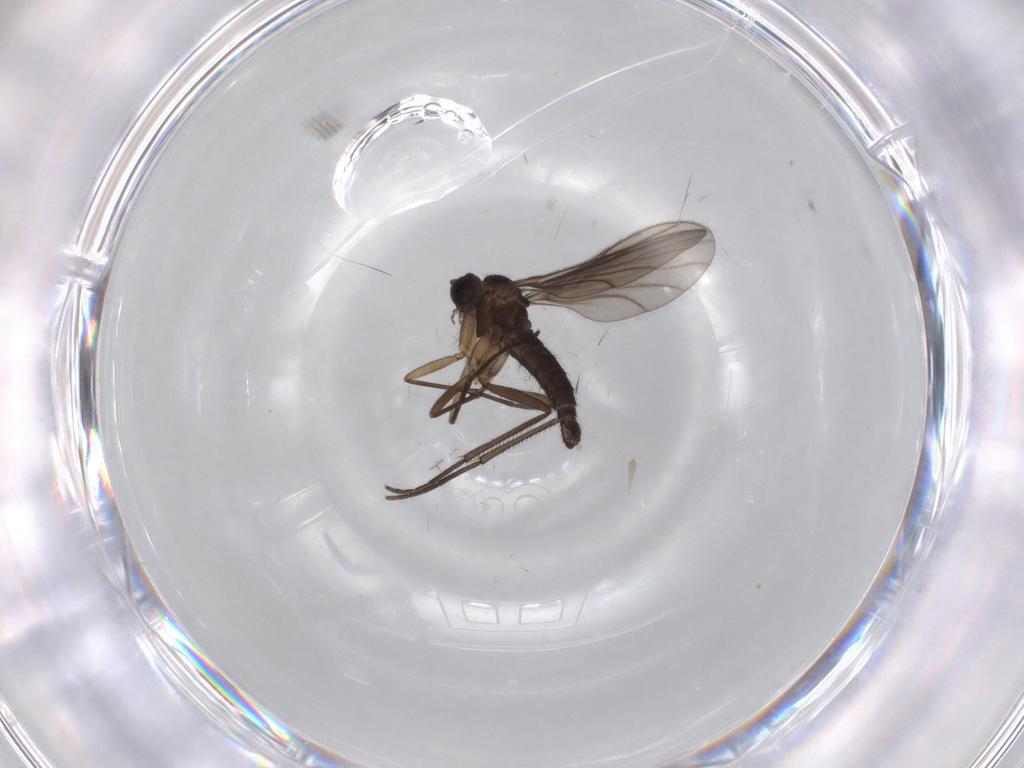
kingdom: Animalia
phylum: Arthropoda
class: Insecta
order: Diptera
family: Sciaridae
